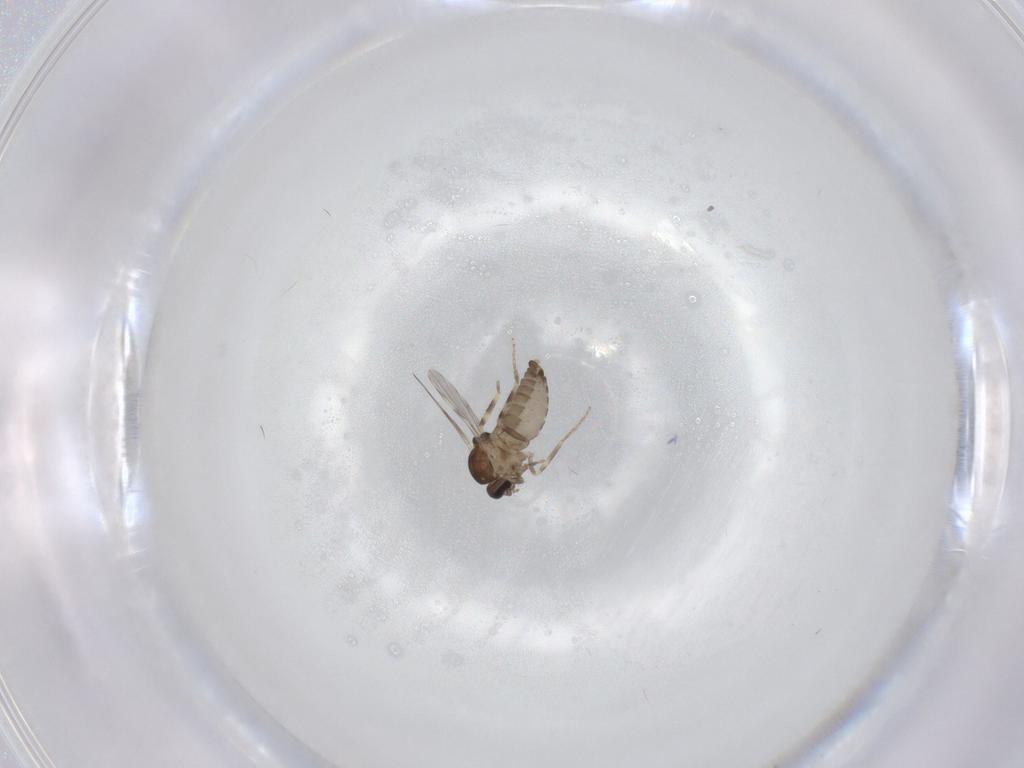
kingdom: Animalia
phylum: Arthropoda
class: Insecta
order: Diptera
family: Ceratopogonidae
